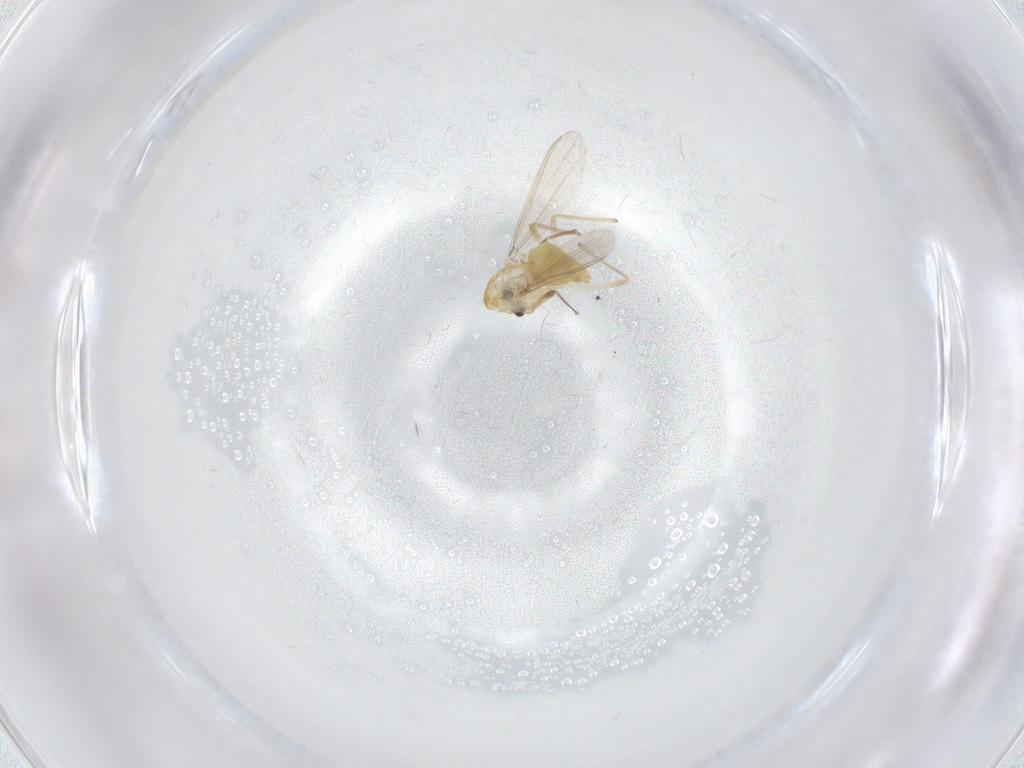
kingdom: Animalia
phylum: Arthropoda
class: Insecta
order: Diptera
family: Chironomidae
